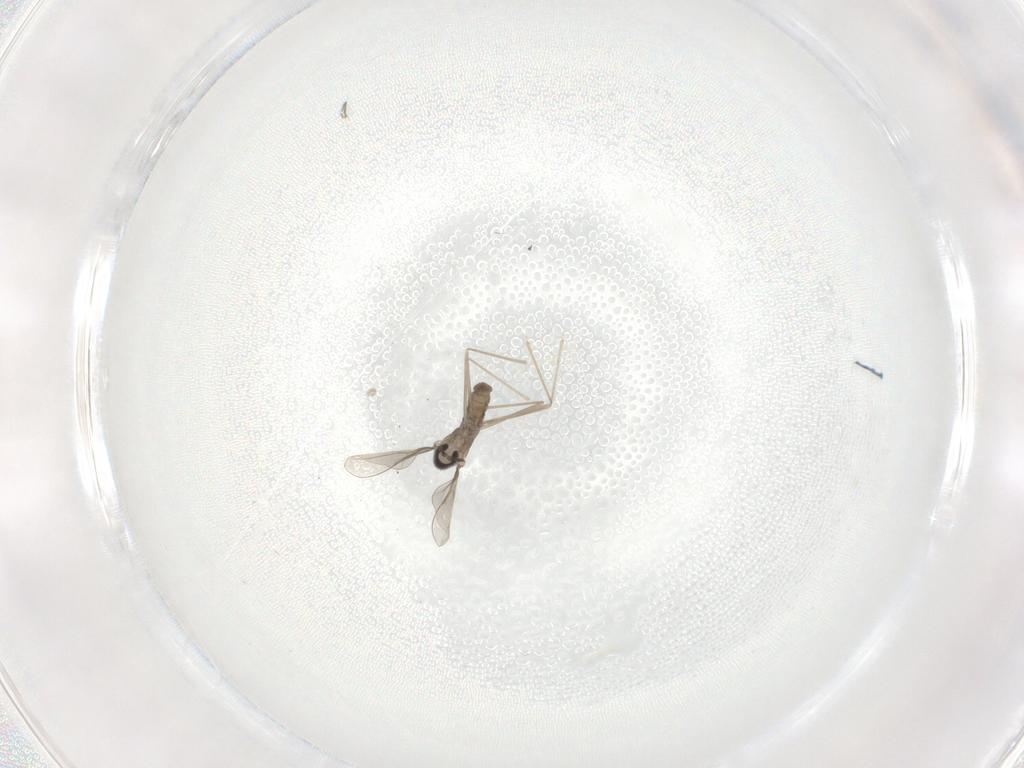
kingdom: Animalia
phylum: Arthropoda
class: Insecta
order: Diptera
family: Cecidomyiidae
